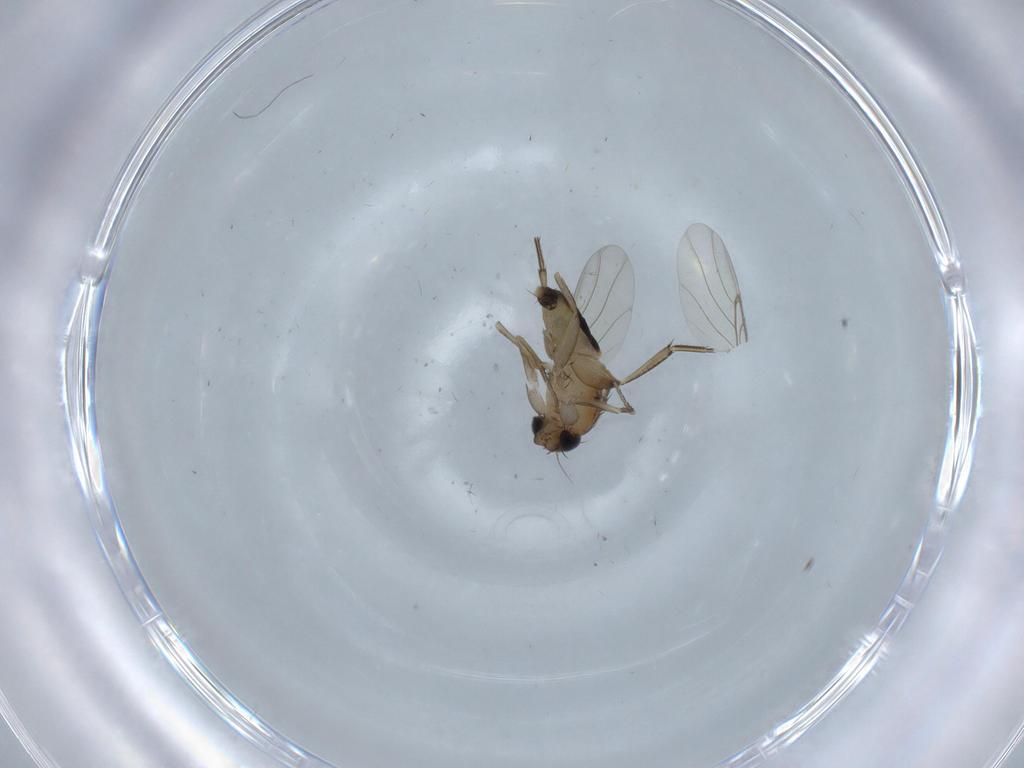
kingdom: Animalia
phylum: Arthropoda
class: Insecta
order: Diptera
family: Phoridae
